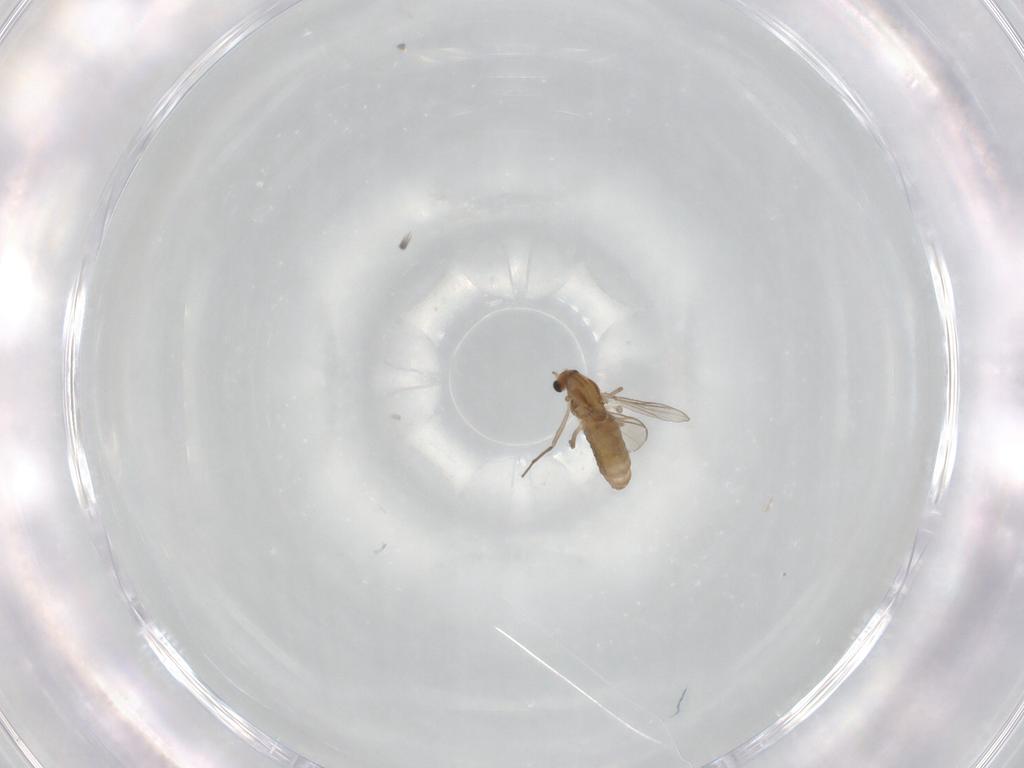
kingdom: Animalia
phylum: Arthropoda
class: Insecta
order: Diptera
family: Chironomidae
